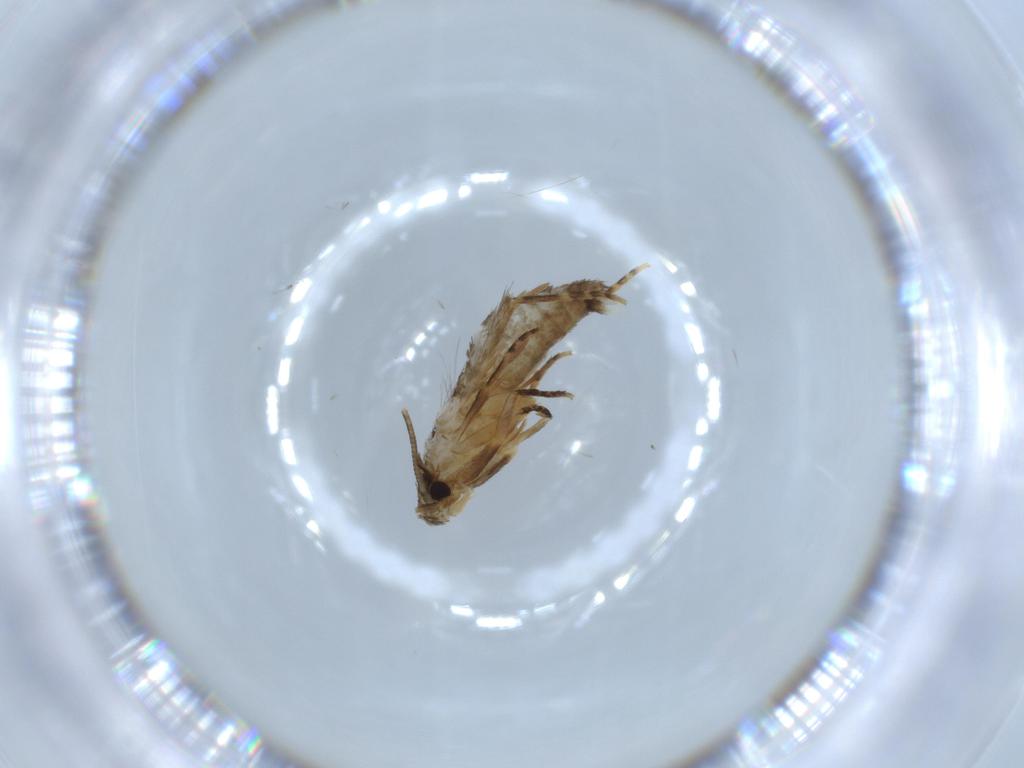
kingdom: Animalia
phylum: Arthropoda
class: Insecta
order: Lepidoptera
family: Tineidae
